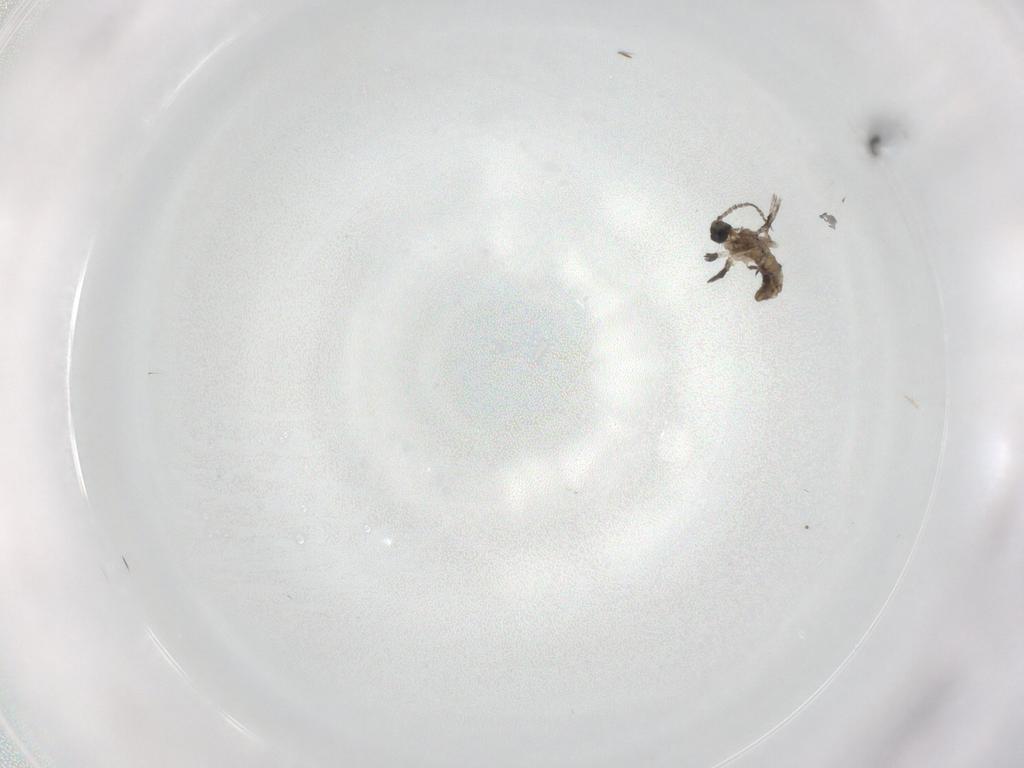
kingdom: Animalia
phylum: Arthropoda
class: Insecta
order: Diptera
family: Cecidomyiidae
